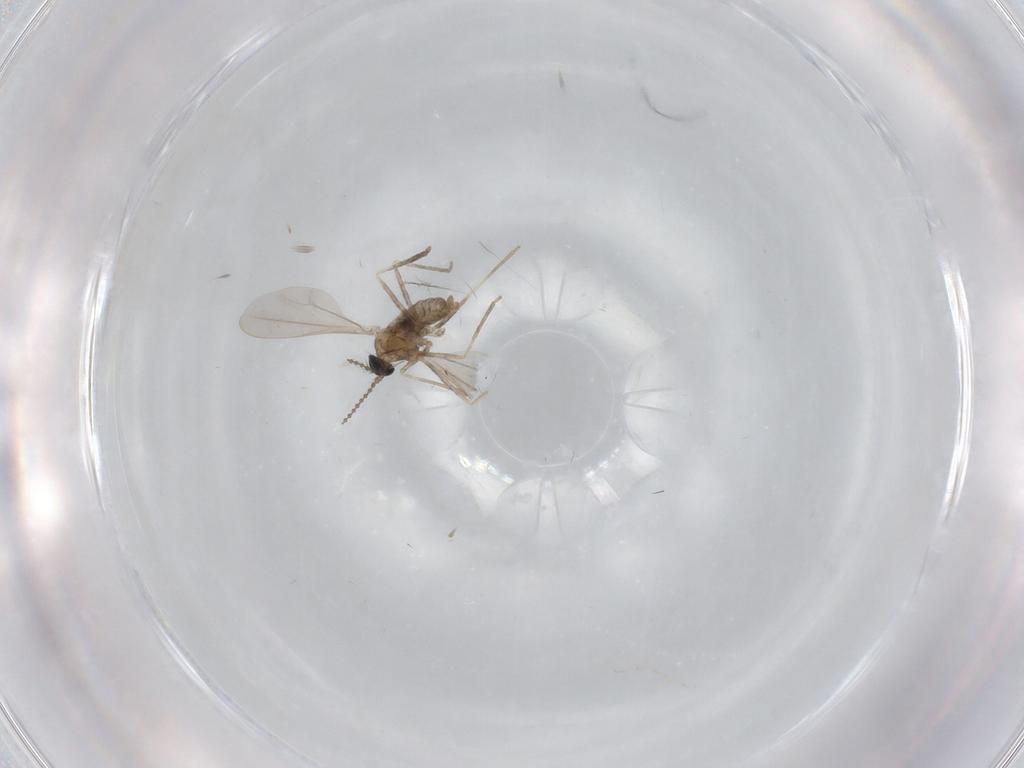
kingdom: Animalia
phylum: Arthropoda
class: Insecta
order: Diptera
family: Cecidomyiidae
